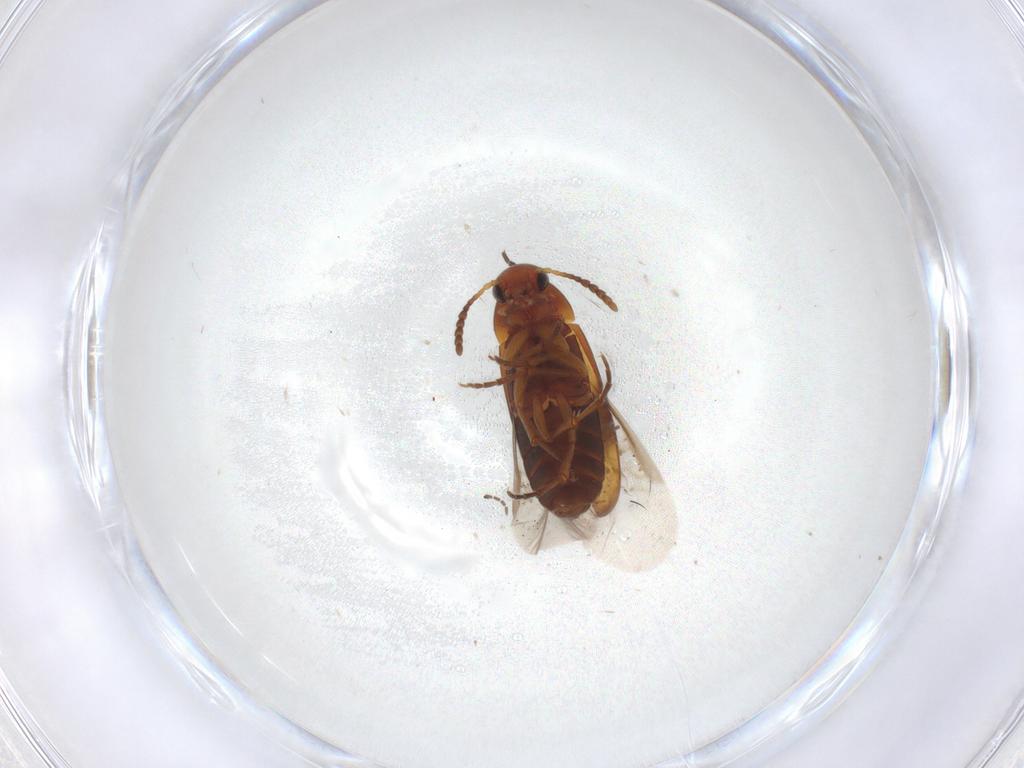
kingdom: Animalia
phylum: Arthropoda
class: Insecta
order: Coleoptera
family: Scraptiidae
